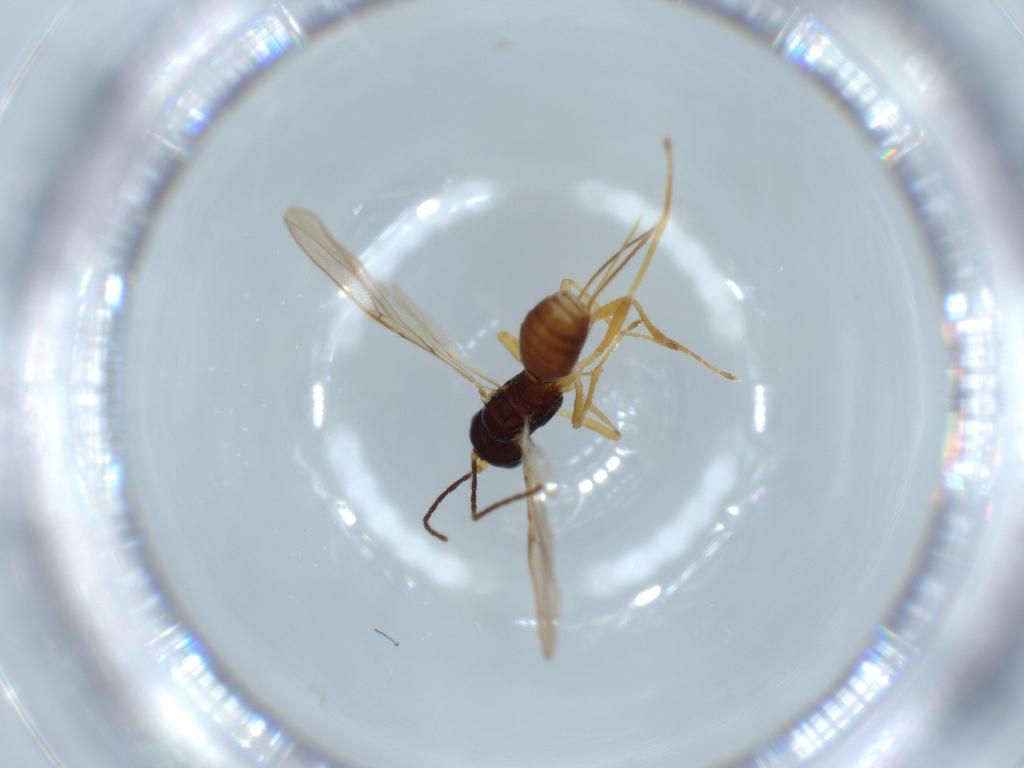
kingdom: Animalia
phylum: Arthropoda
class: Insecta
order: Hymenoptera
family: Braconidae
